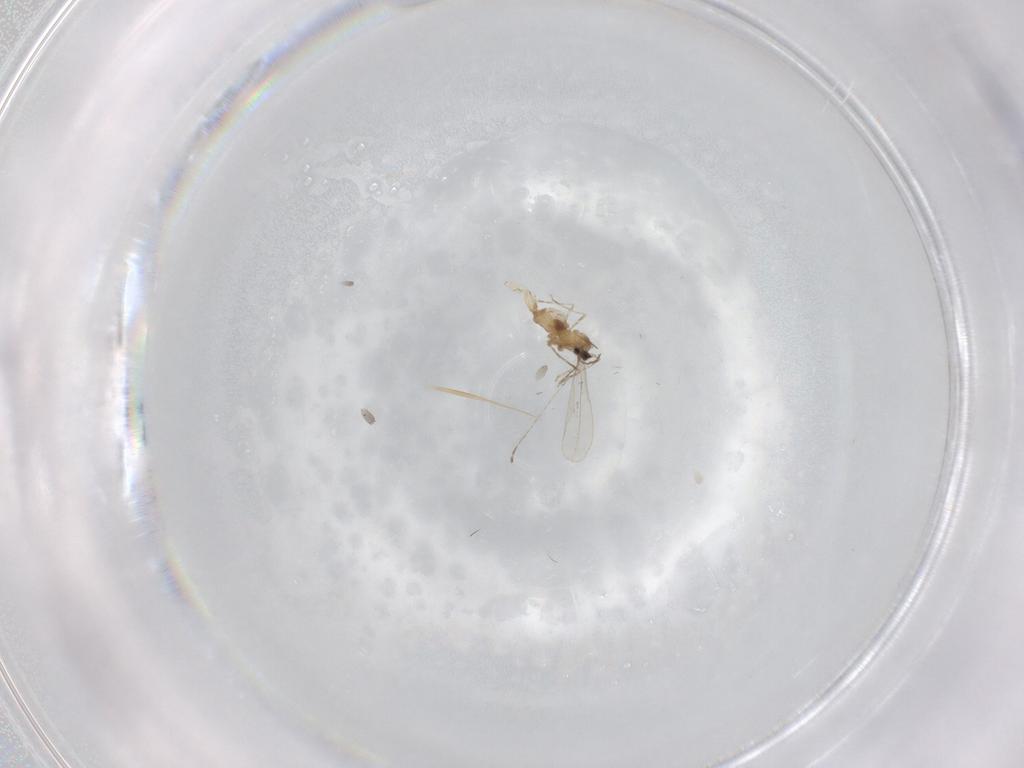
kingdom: Animalia
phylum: Arthropoda
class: Insecta
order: Diptera
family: Cecidomyiidae
